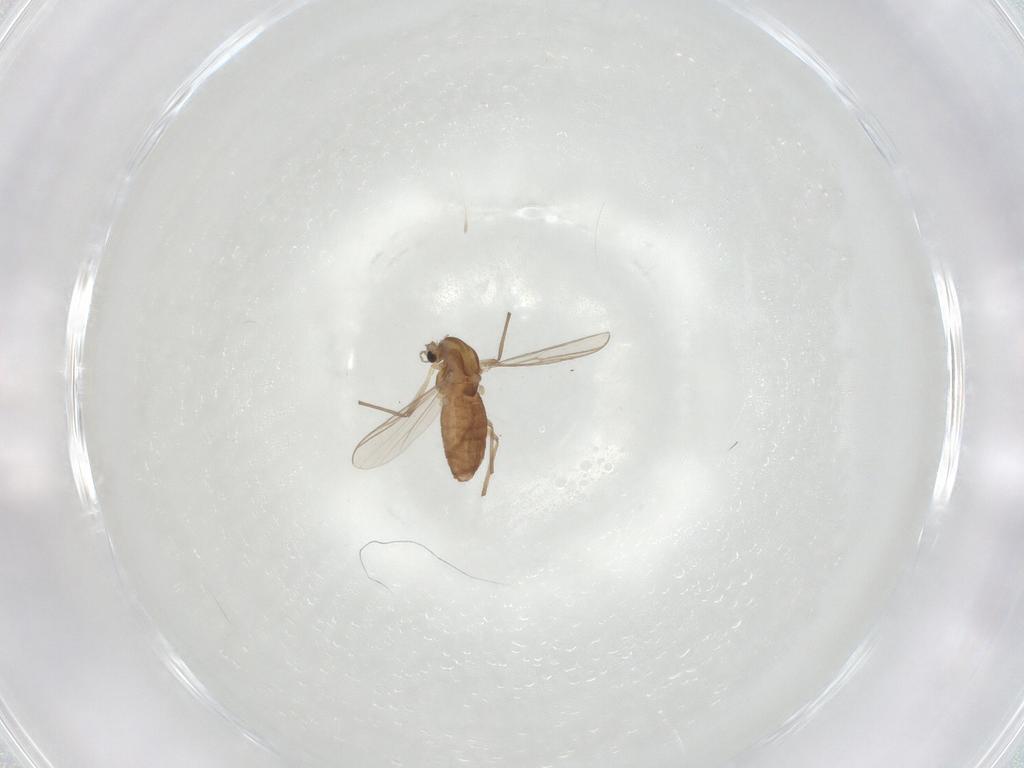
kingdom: Animalia
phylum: Arthropoda
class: Insecta
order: Diptera
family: Chironomidae
